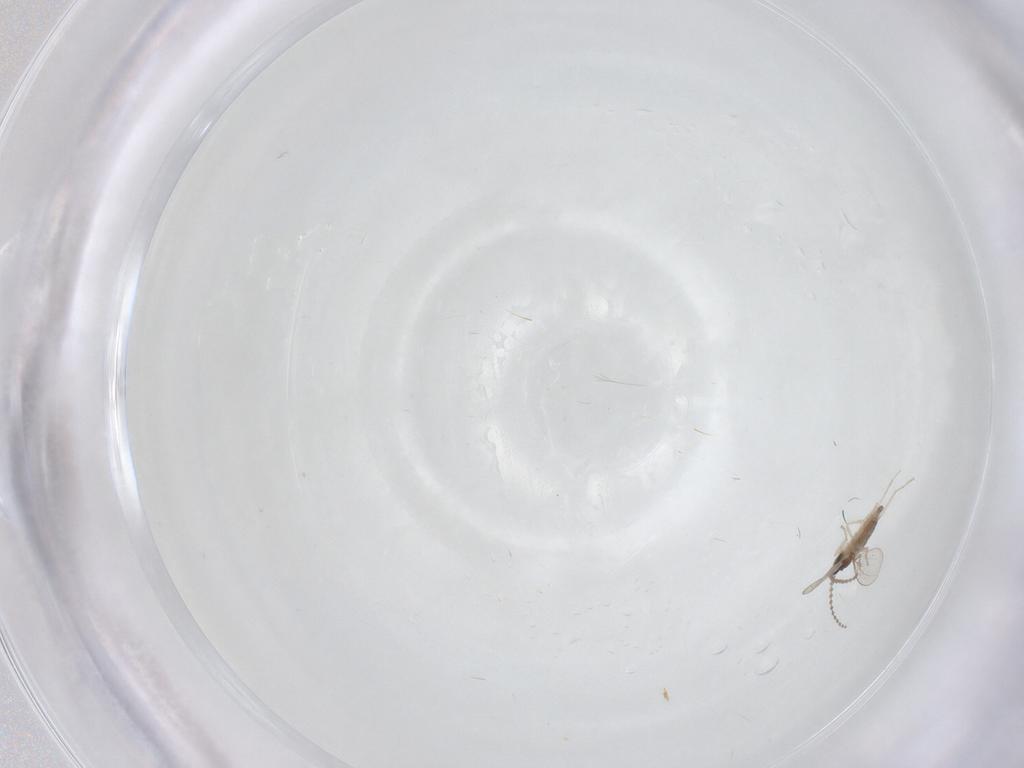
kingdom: Animalia
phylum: Arthropoda
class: Insecta
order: Diptera
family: Cecidomyiidae
